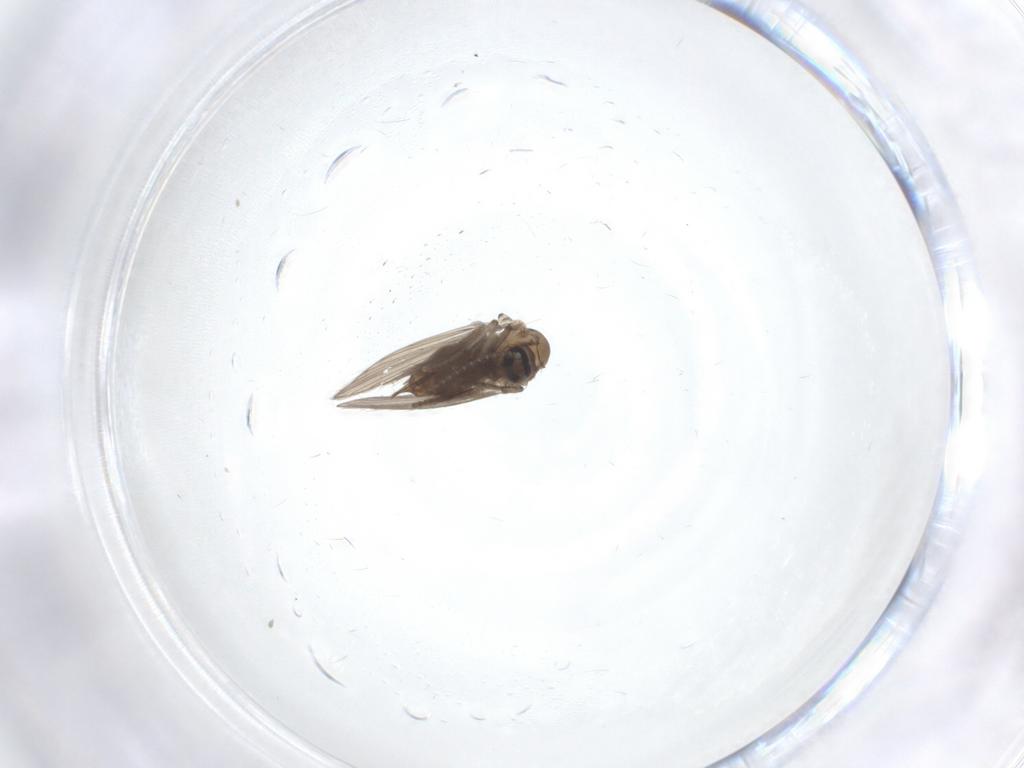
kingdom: Animalia
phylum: Arthropoda
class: Insecta
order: Diptera
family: Psychodidae
